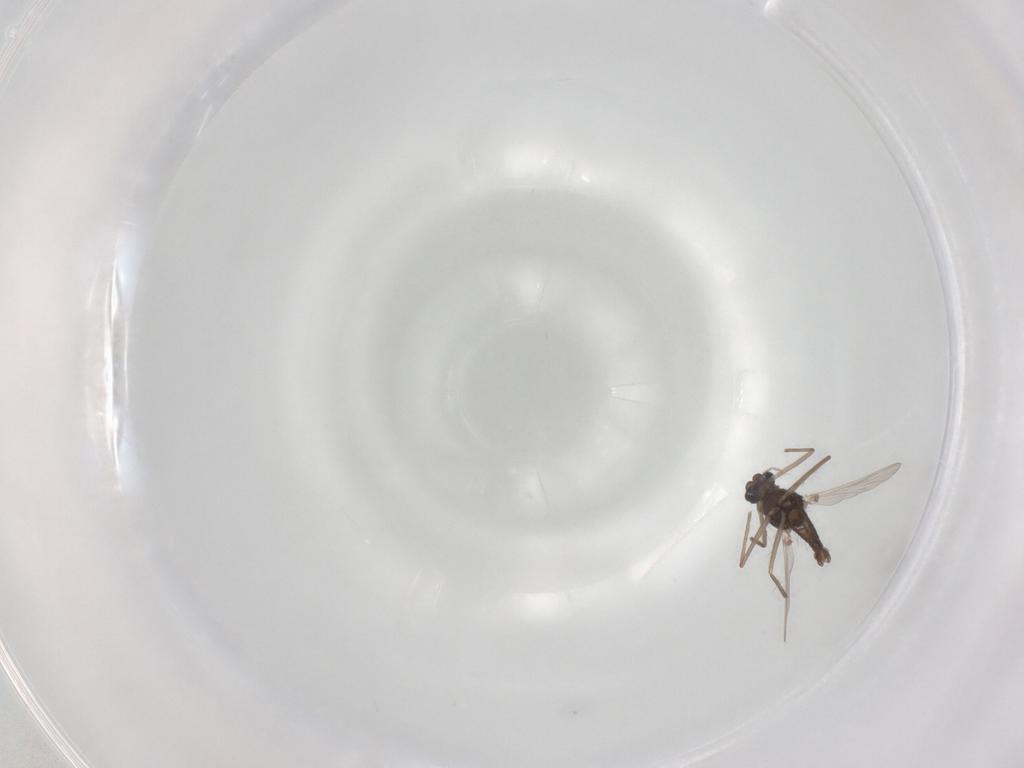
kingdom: Animalia
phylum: Arthropoda
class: Insecta
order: Diptera
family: Chironomidae
